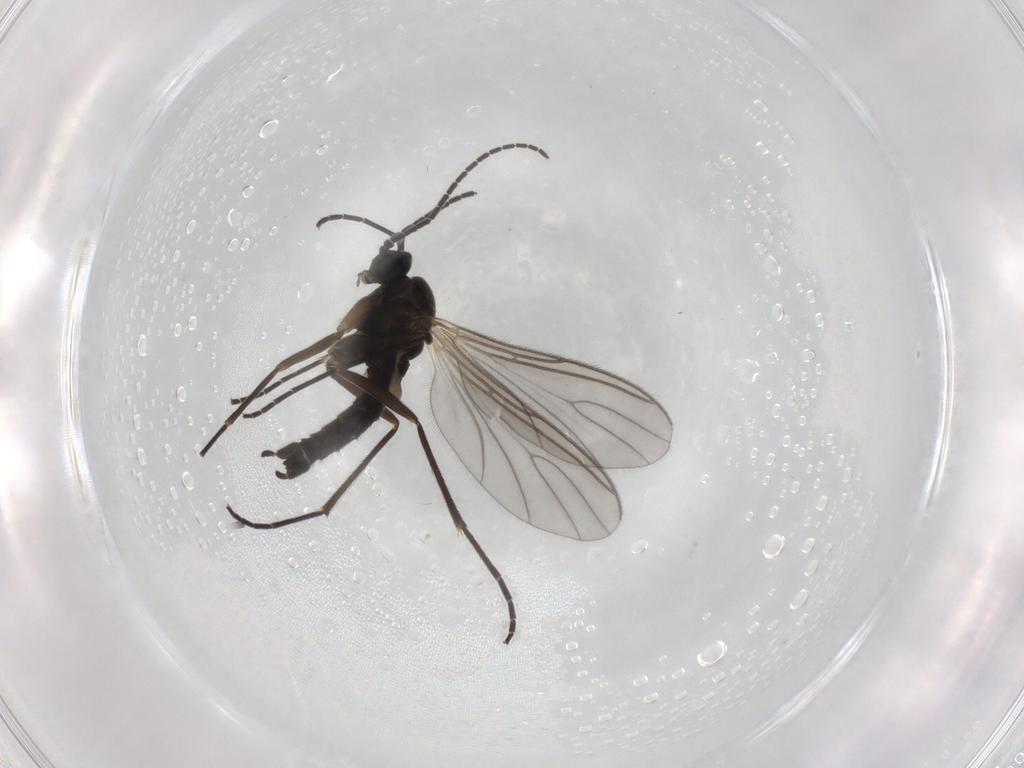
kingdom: Animalia
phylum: Arthropoda
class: Insecta
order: Diptera
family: Sciaridae
